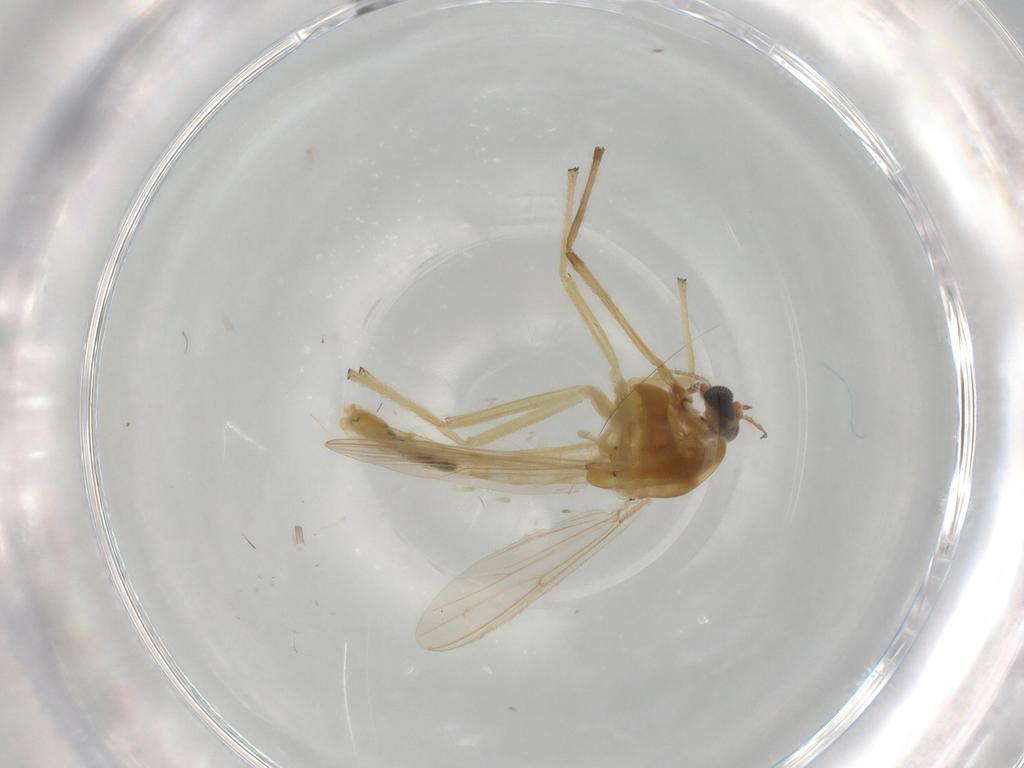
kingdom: Animalia
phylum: Arthropoda
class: Insecta
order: Diptera
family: Chironomidae
